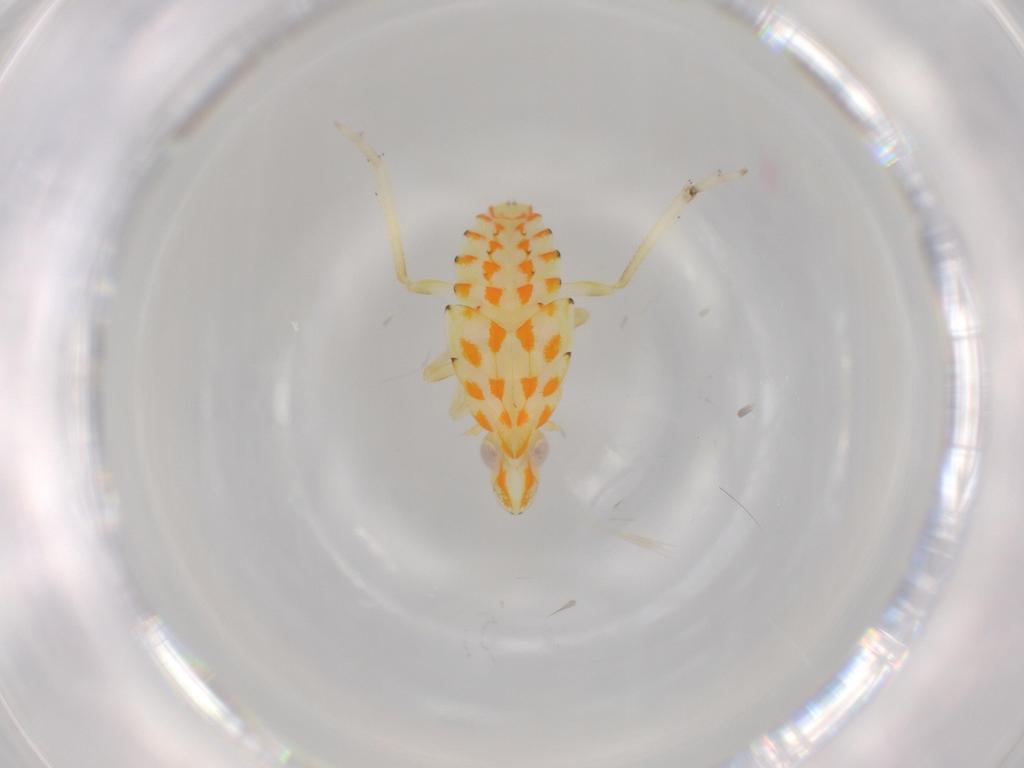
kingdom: Animalia
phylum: Arthropoda
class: Insecta
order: Hemiptera
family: Tropiduchidae
